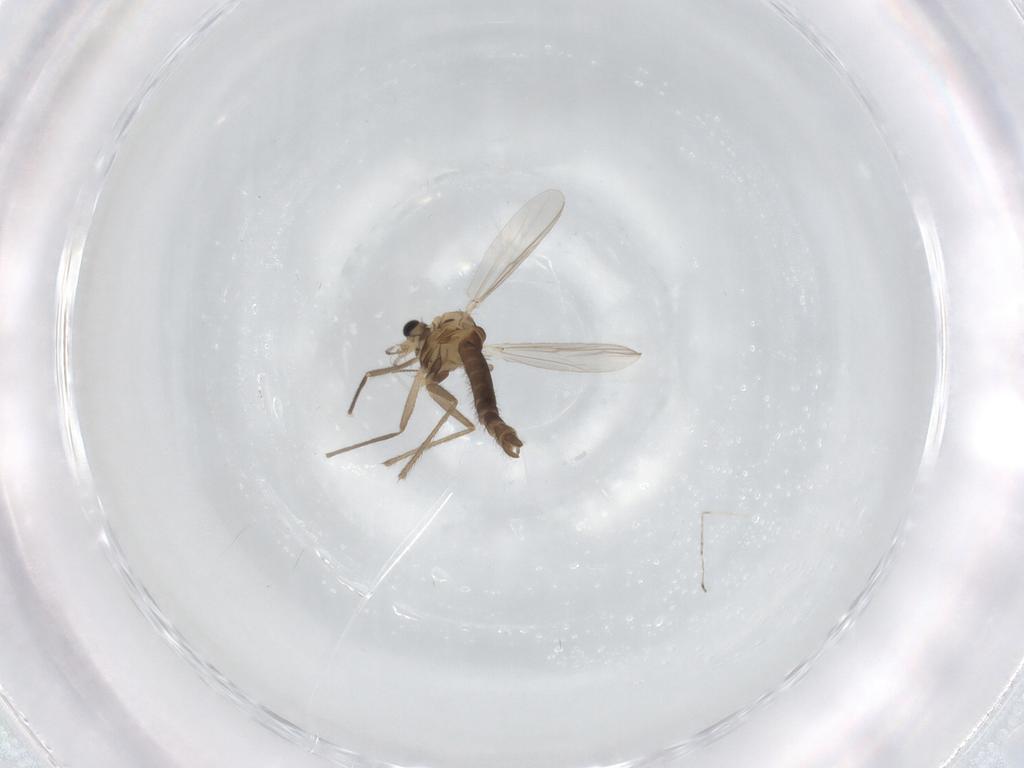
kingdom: Animalia
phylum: Arthropoda
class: Insecta
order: Diptera
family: Chironomidae
